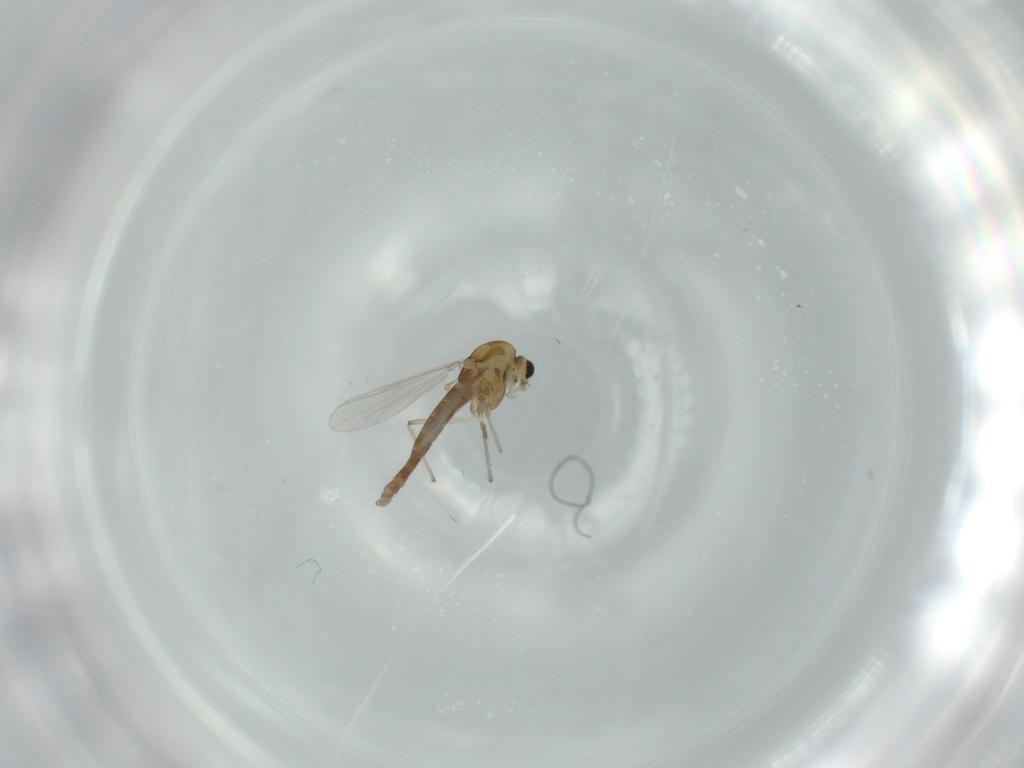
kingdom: Animalia
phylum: Arthropoda
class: Insecta
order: Diptera
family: Chironomidae
